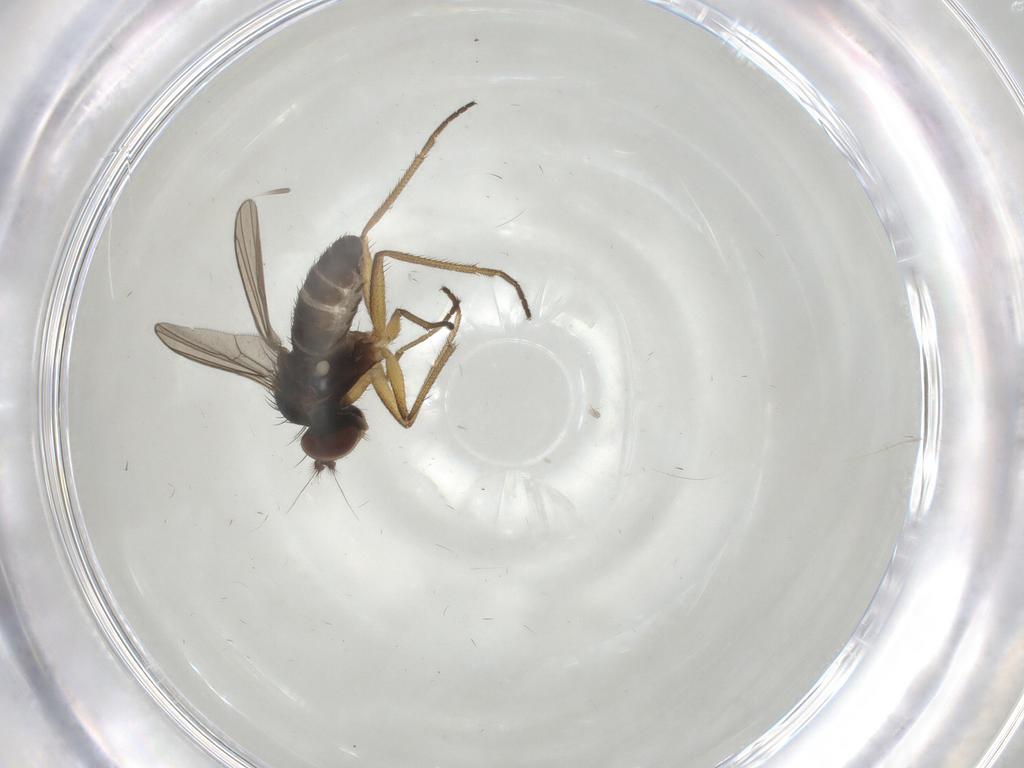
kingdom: Animalia
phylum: Arthropoda
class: Insecta
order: Diptera
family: Dolichopodidae
